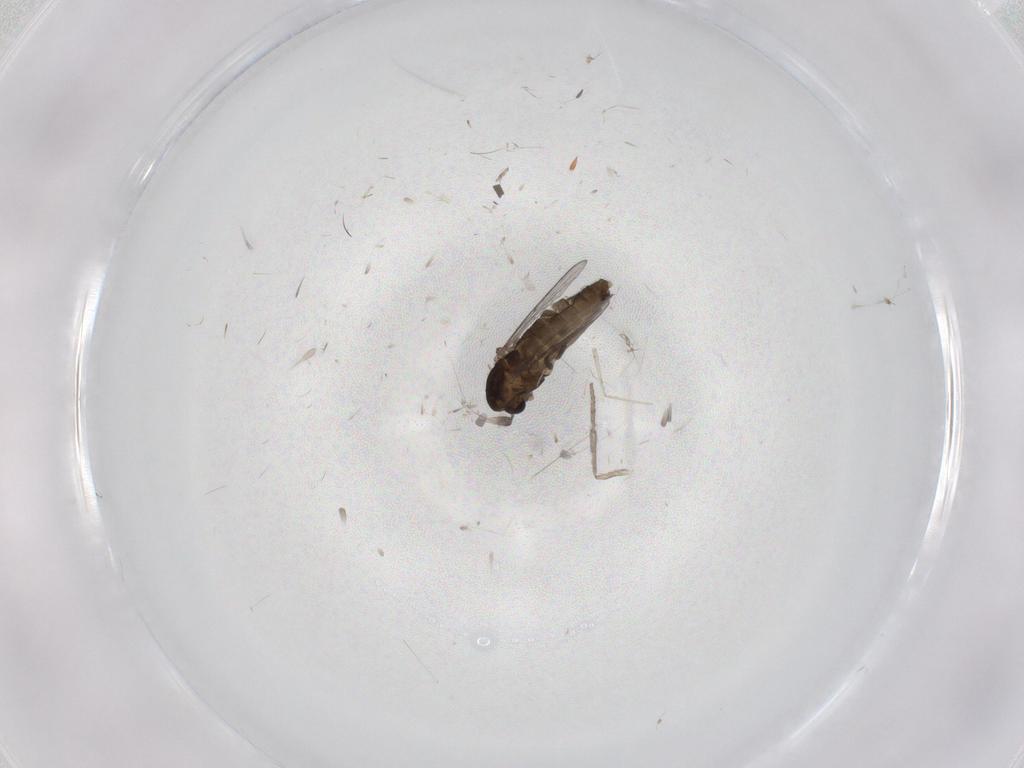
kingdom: Animalia
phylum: Arthropoda
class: Insecta
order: Diptera
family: Chironomidae
